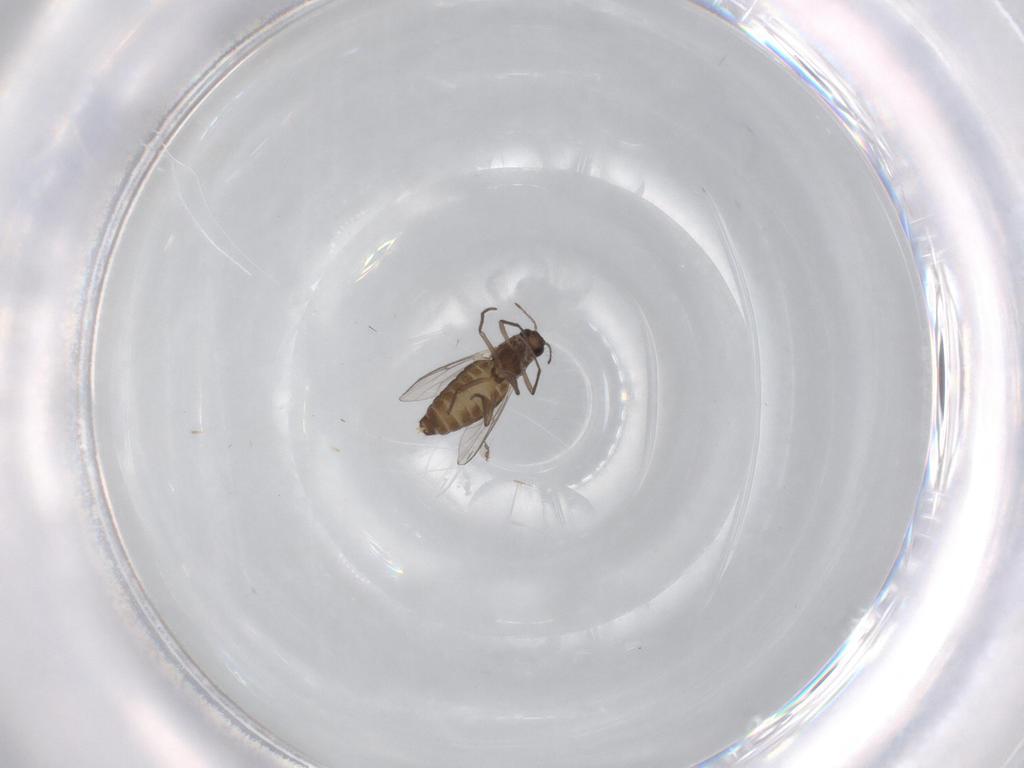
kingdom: Animalia
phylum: Arthropoda
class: Insecta
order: Diptera
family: Chironomidae
